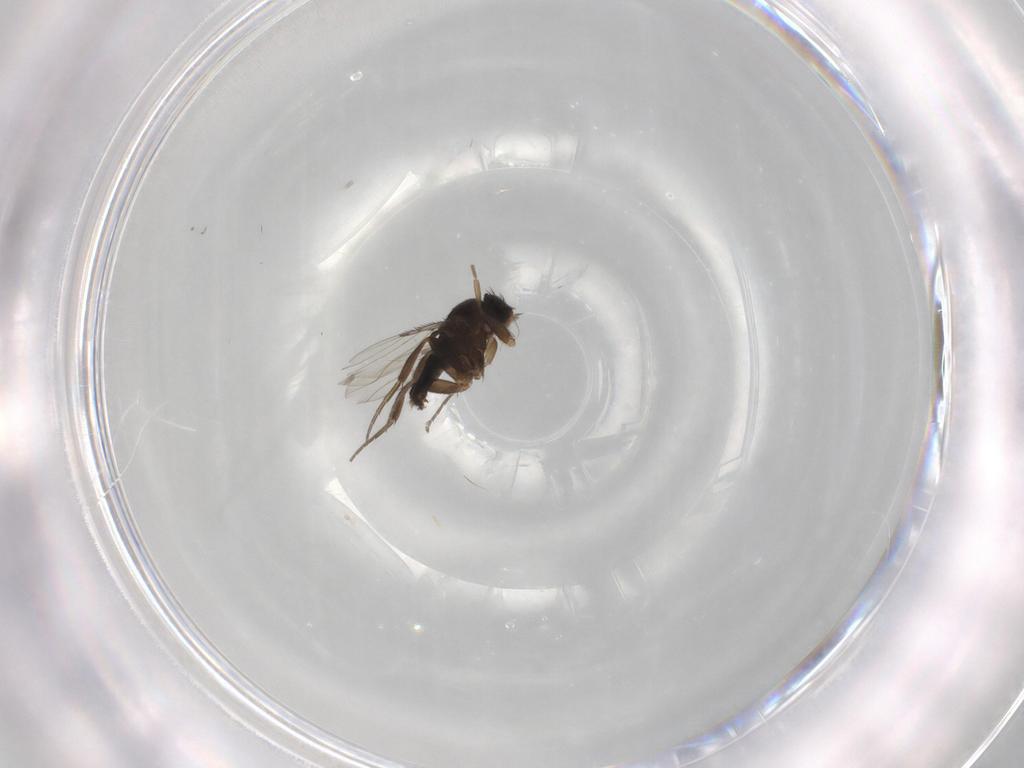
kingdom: Animalia
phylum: Arthropoda
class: Insecta
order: Diptera
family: Phoridae
